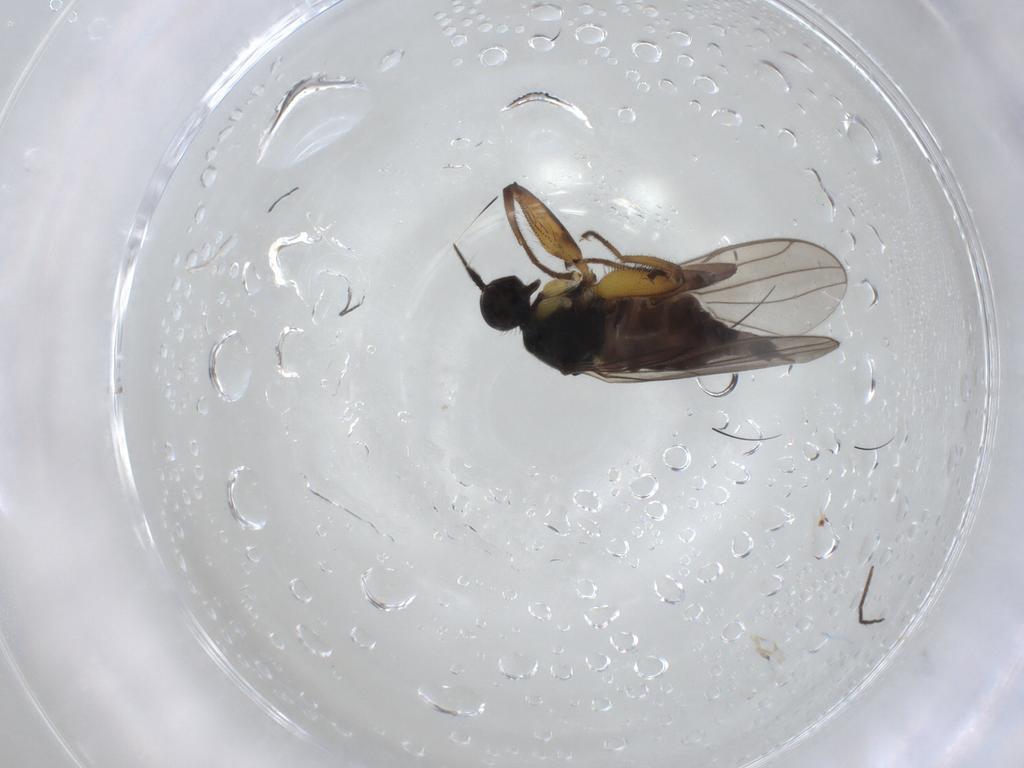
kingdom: Animalia
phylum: Arthropoda
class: Insecta
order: Diptera
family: Hybotidae
